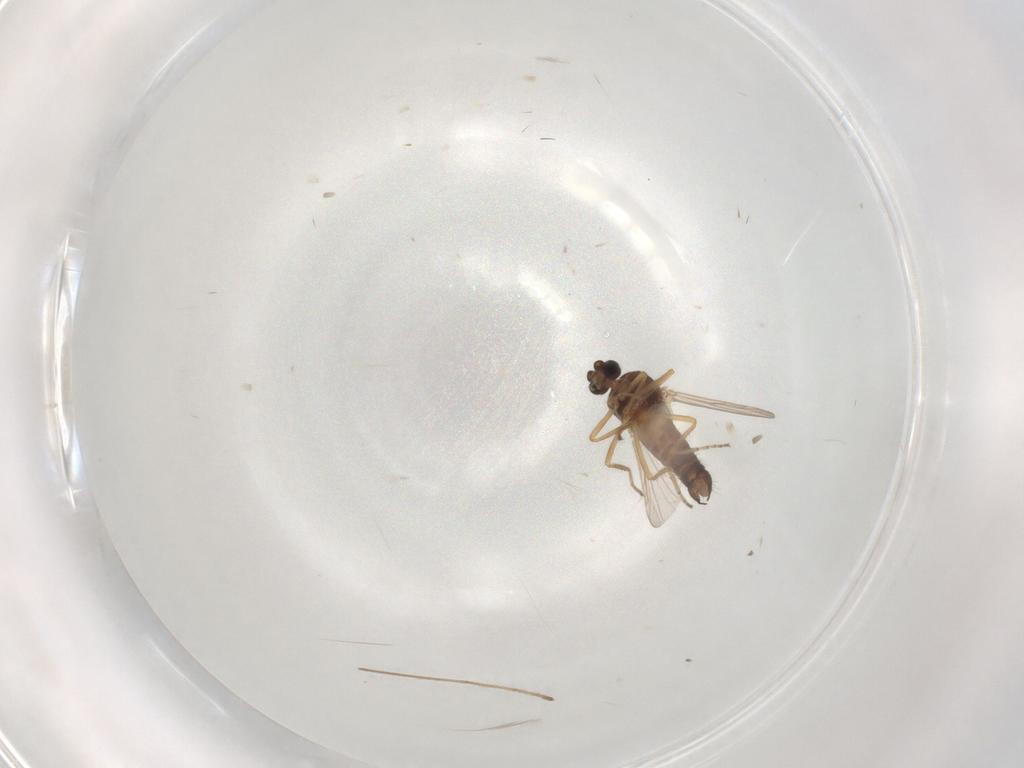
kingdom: Animalia
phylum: Arthropoda
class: Insecta
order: Diptera
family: Ceratopogonidae
